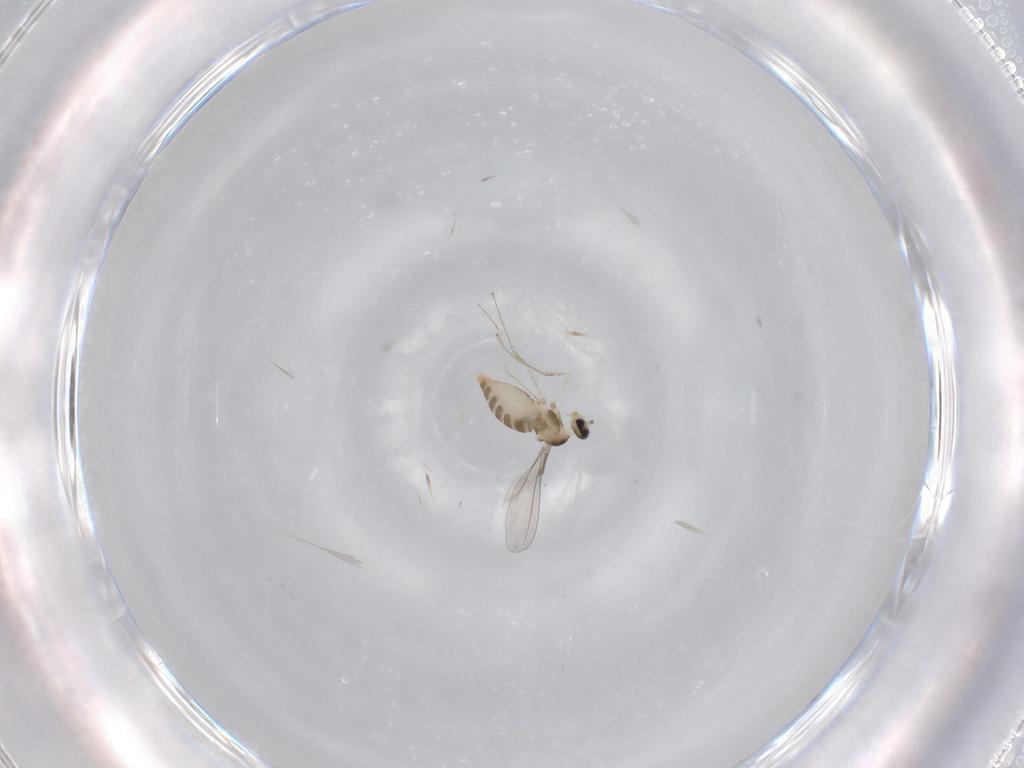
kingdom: Animalia
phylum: Arthropoda
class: Insecta
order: Diptera
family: Cecidomyiidae
